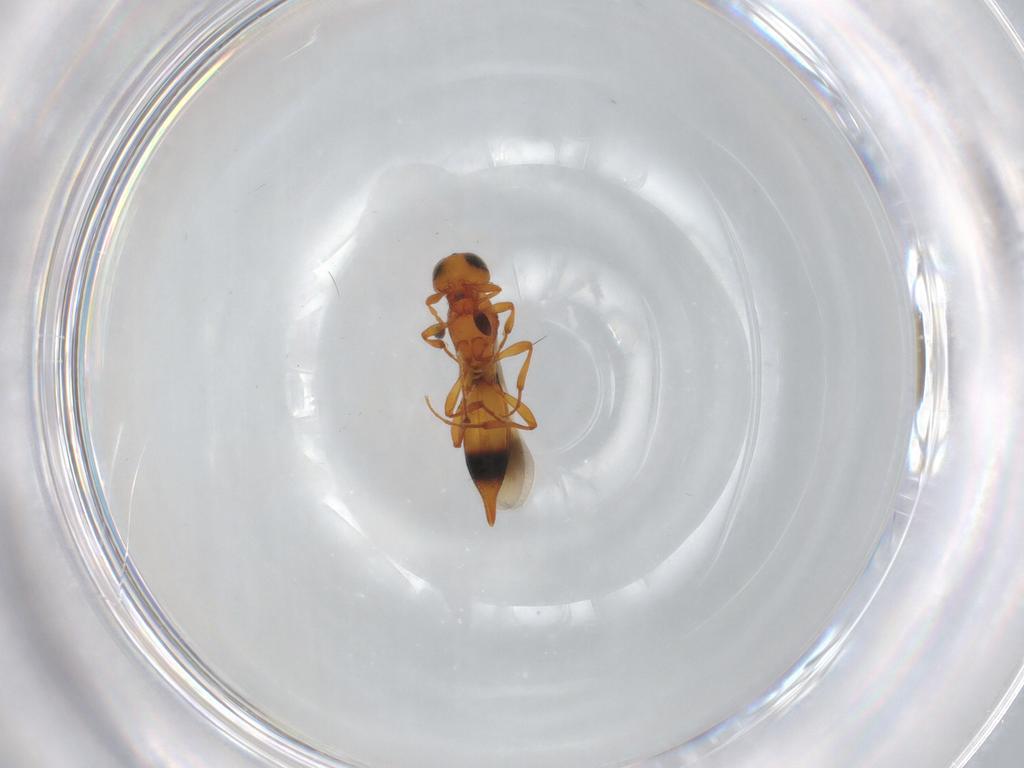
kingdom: Animalia
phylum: Arthropoda
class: Insecta
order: Hymenoptera
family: Platygastridae
